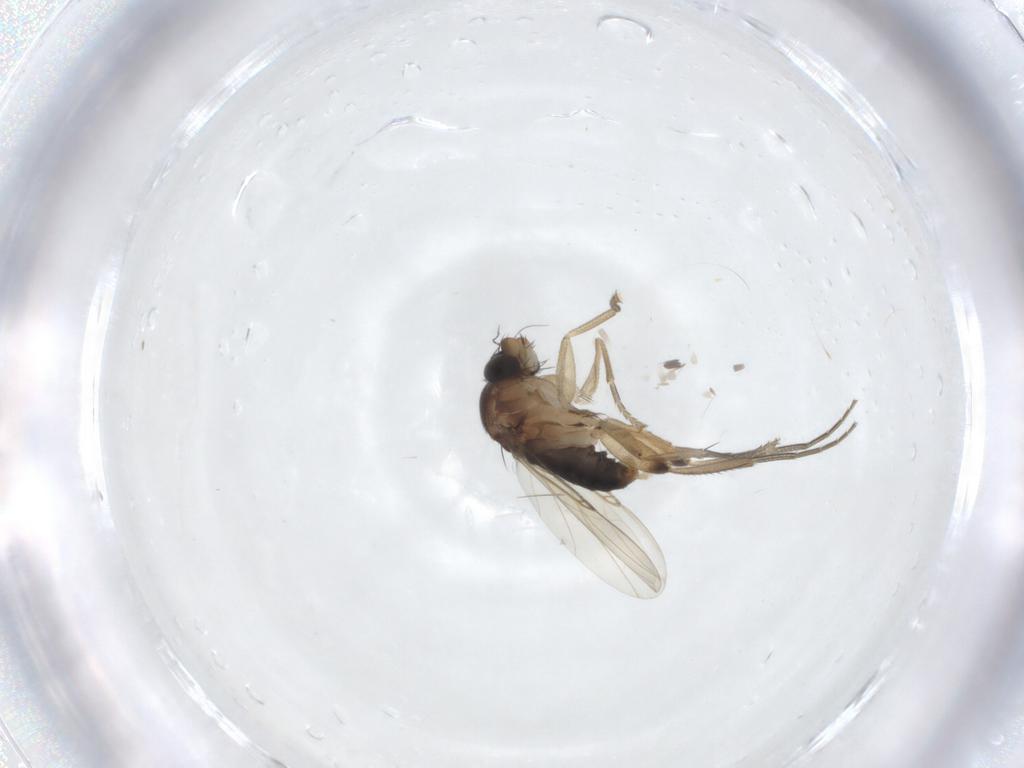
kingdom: Animalia
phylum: Arthropoda
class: Insecta
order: Diptera
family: Phoridae
